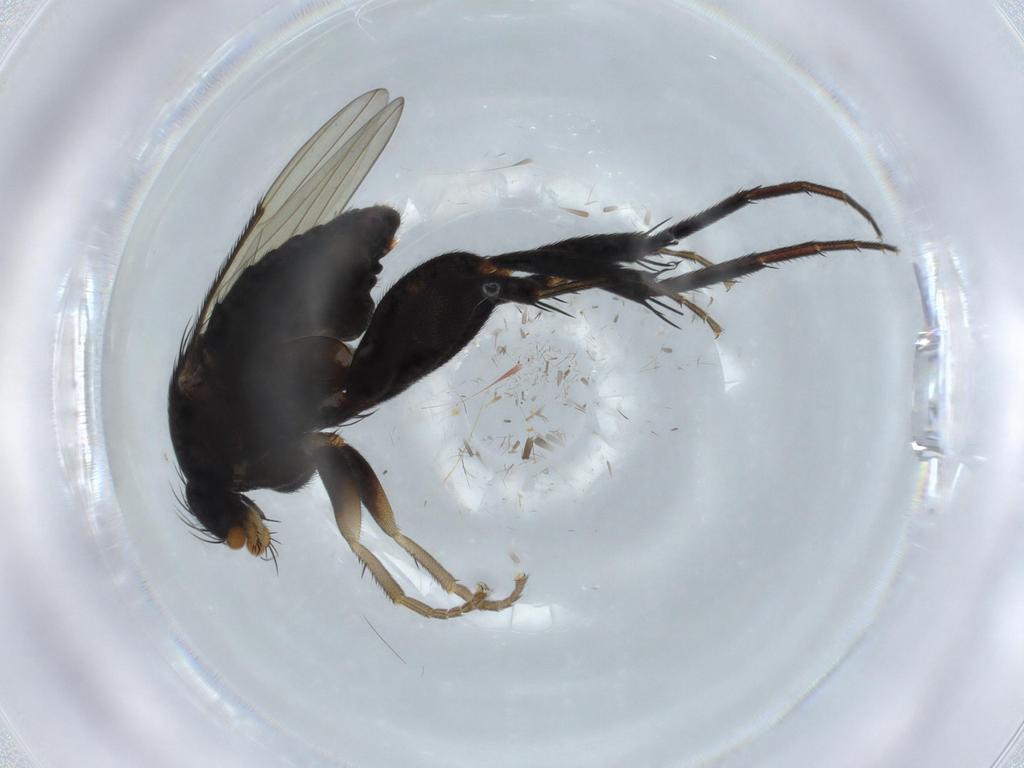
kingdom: Animalia
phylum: Arthropoda
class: Insecta
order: Diptera
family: Phoridae
